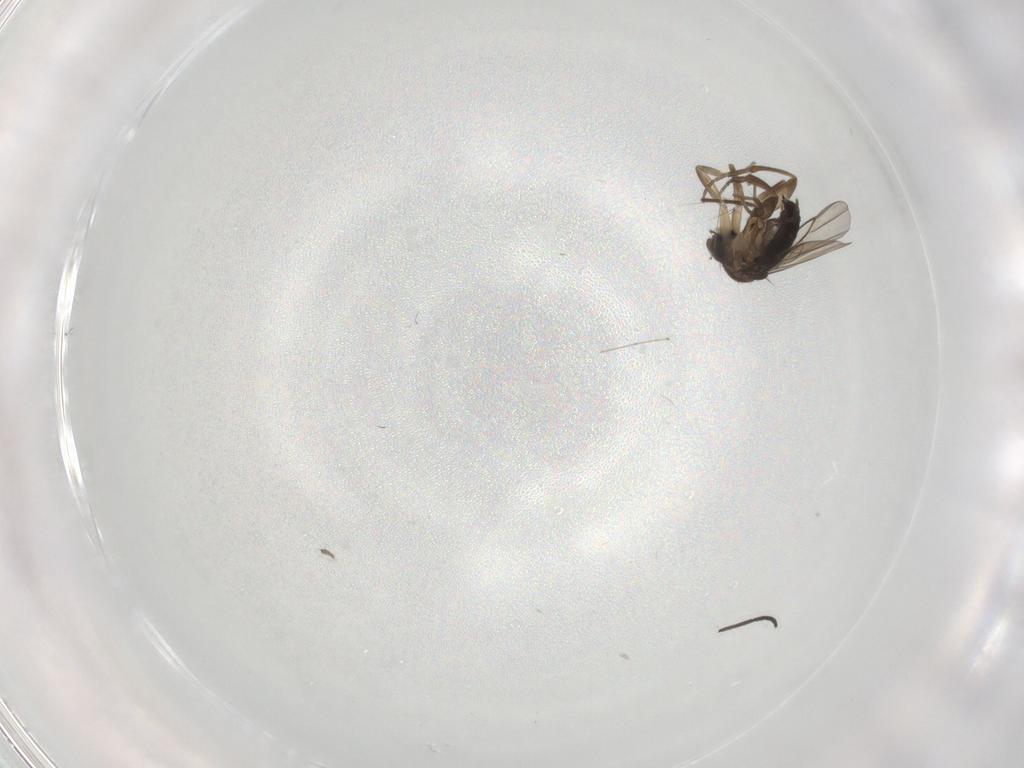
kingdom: Animalia
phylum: Arthropoda
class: Insecta
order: Diptera
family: Phoridae
